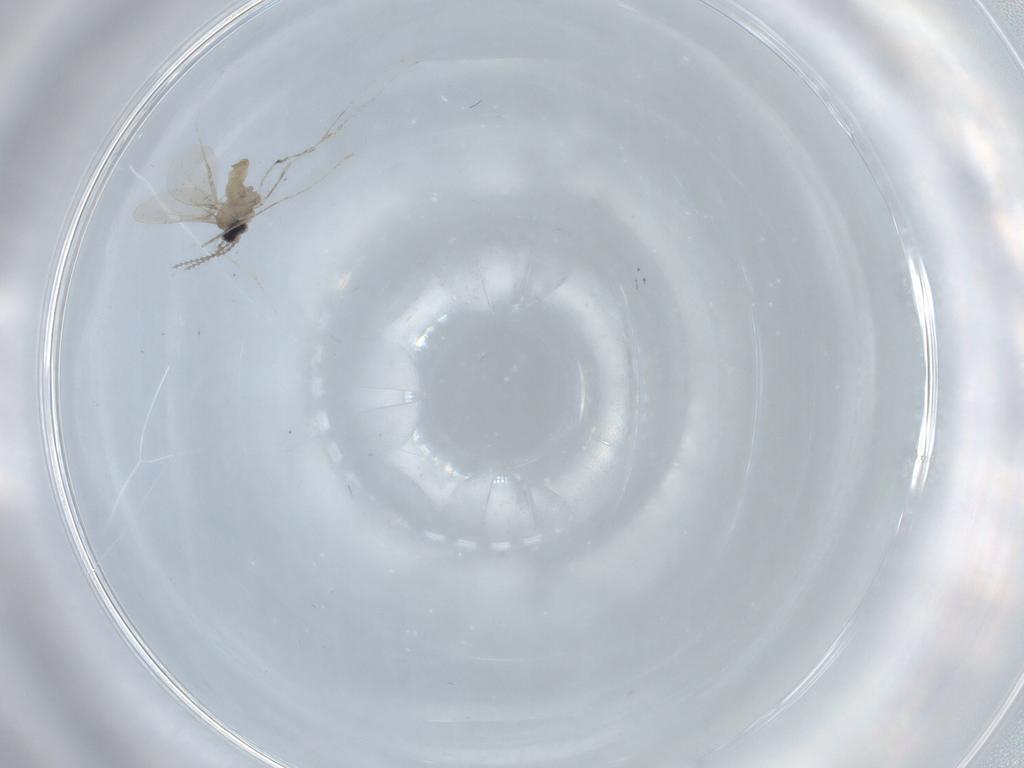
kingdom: Animalia
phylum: Arthropoda
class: Insecta
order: Diptera
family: Cecidomyiidae
